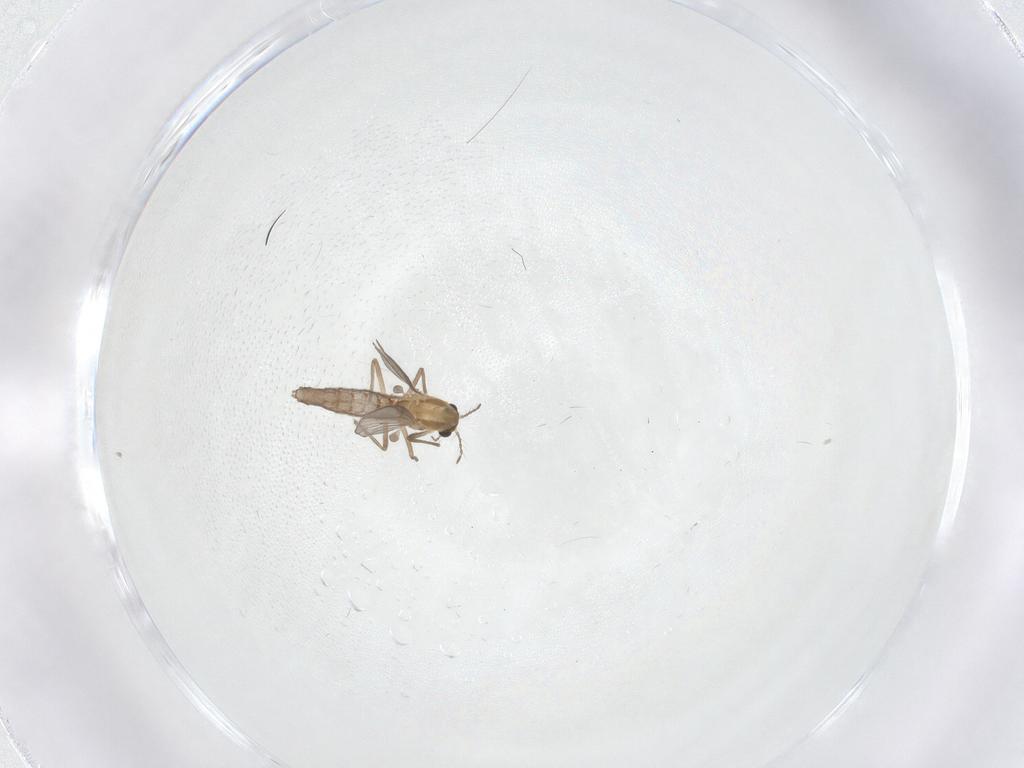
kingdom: Animalia
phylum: Arthropoda
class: Insecta
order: Diptera
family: Chironomidae
